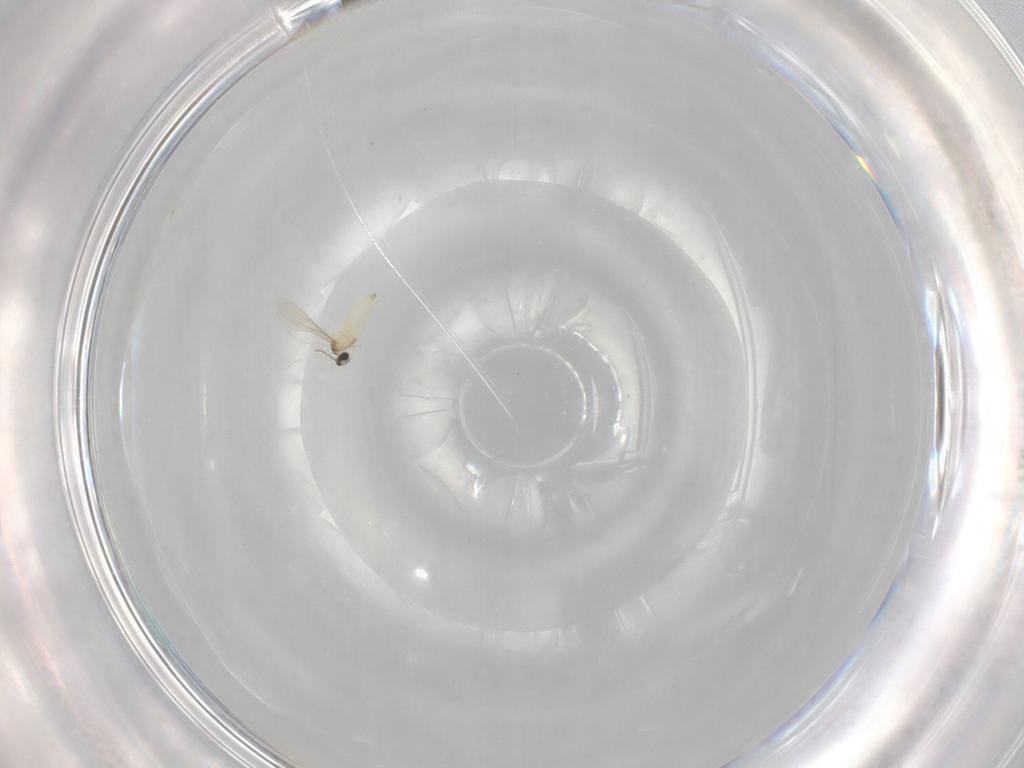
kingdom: Animalia
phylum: Arthropoda
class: Insecta
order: Diptera
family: Cecidomyiidae
